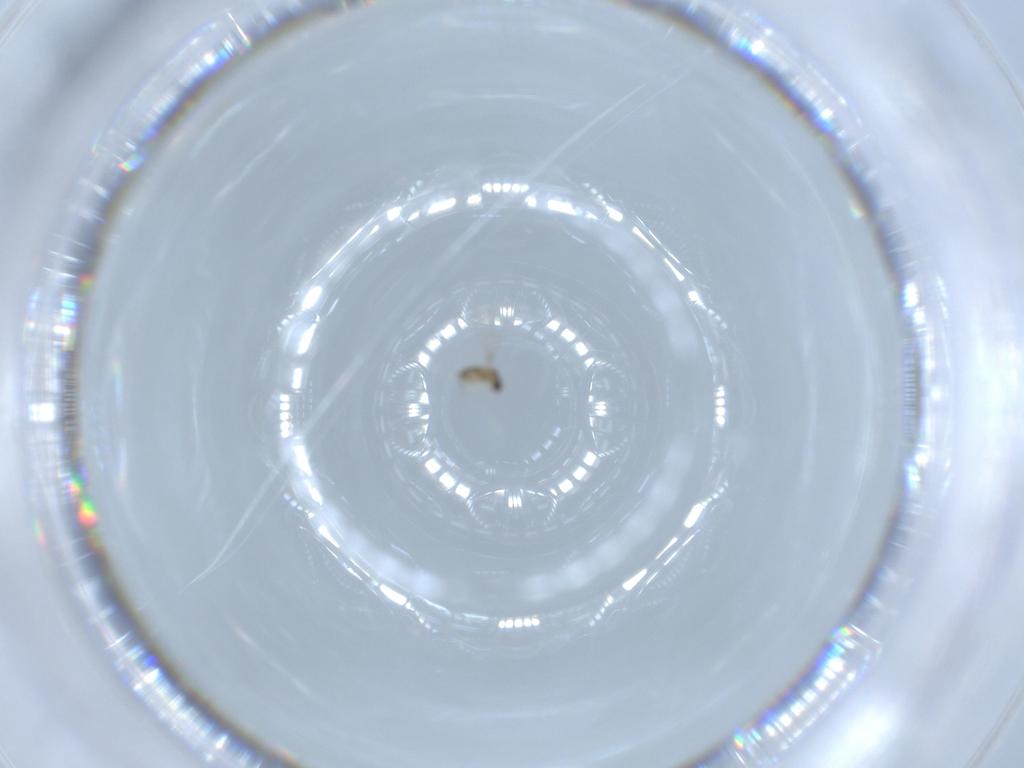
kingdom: Animalia
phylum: Arthropoda
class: Insecta
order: Hymenoptera
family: Mymaridae
